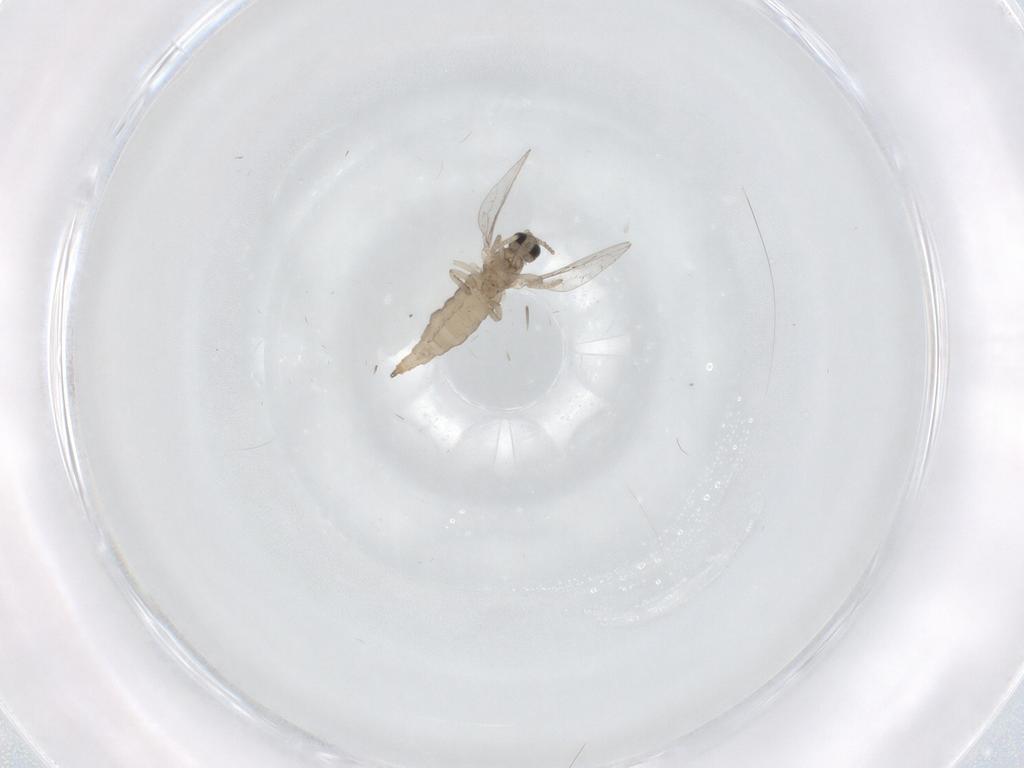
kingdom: Animalia
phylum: Arthropoda
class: Insecta
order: Diptera
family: Cecidomyiidae
